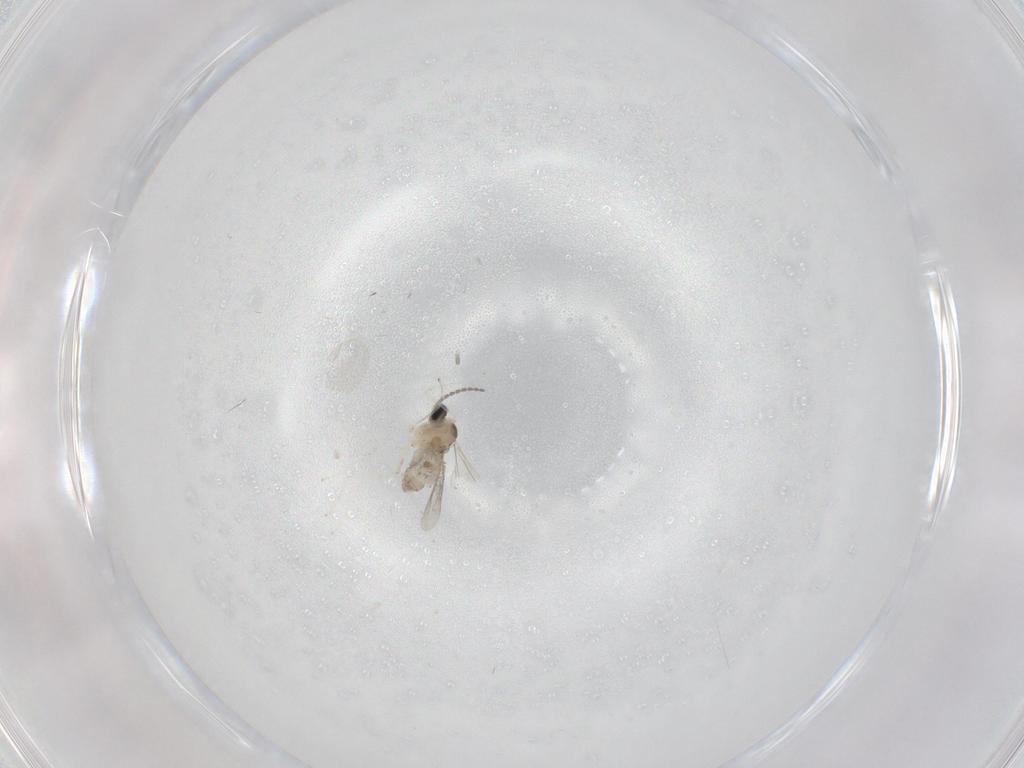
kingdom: Animalia
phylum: Arthropoda
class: Insecta
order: Diptera
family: Cecidomyiidae
